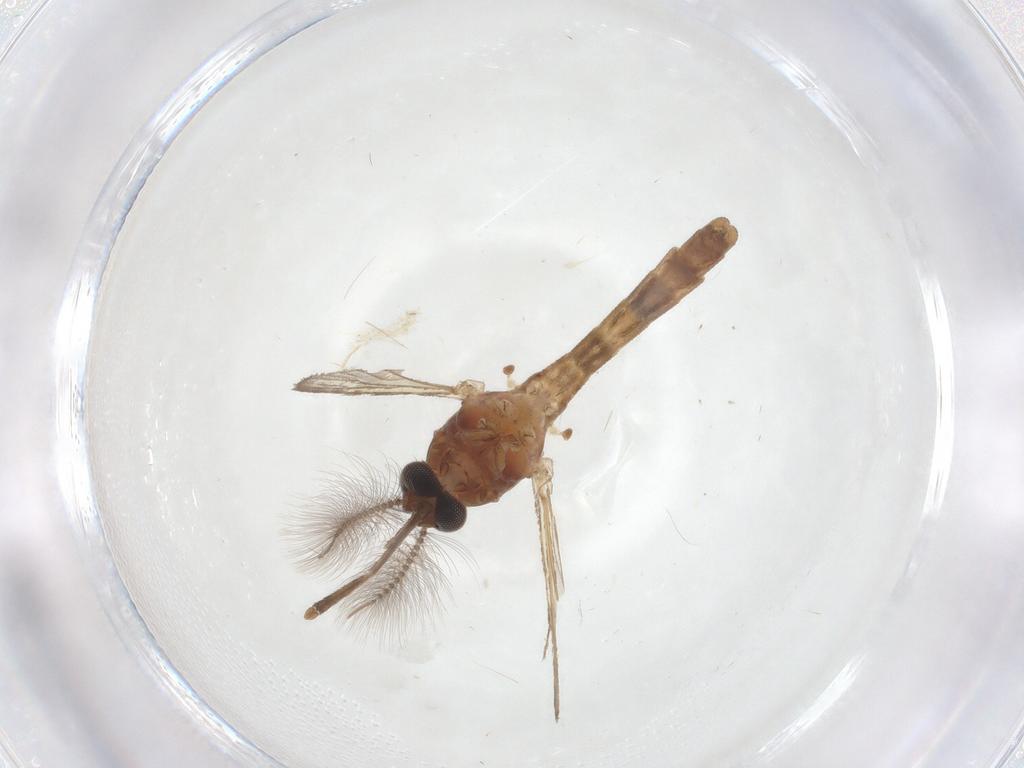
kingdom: Animalia
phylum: Arthropoda
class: Insecta
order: Diptera
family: Culicidae
